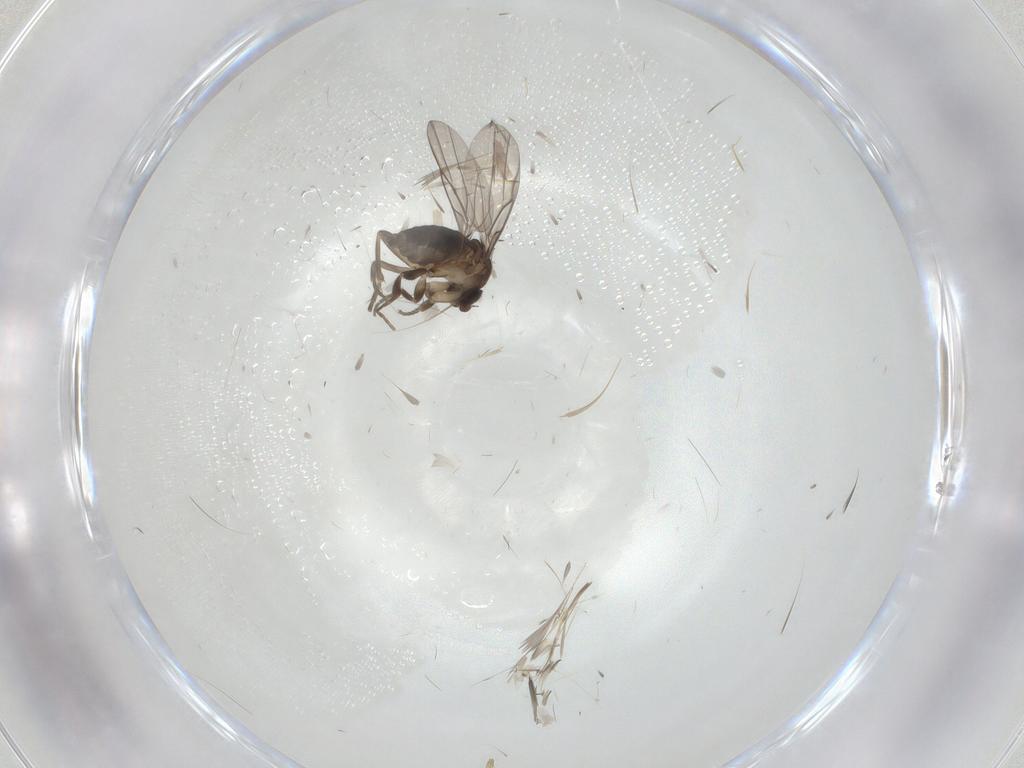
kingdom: Animalia
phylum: Arthropoda
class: Insecta
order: Diptera
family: Phoridae
